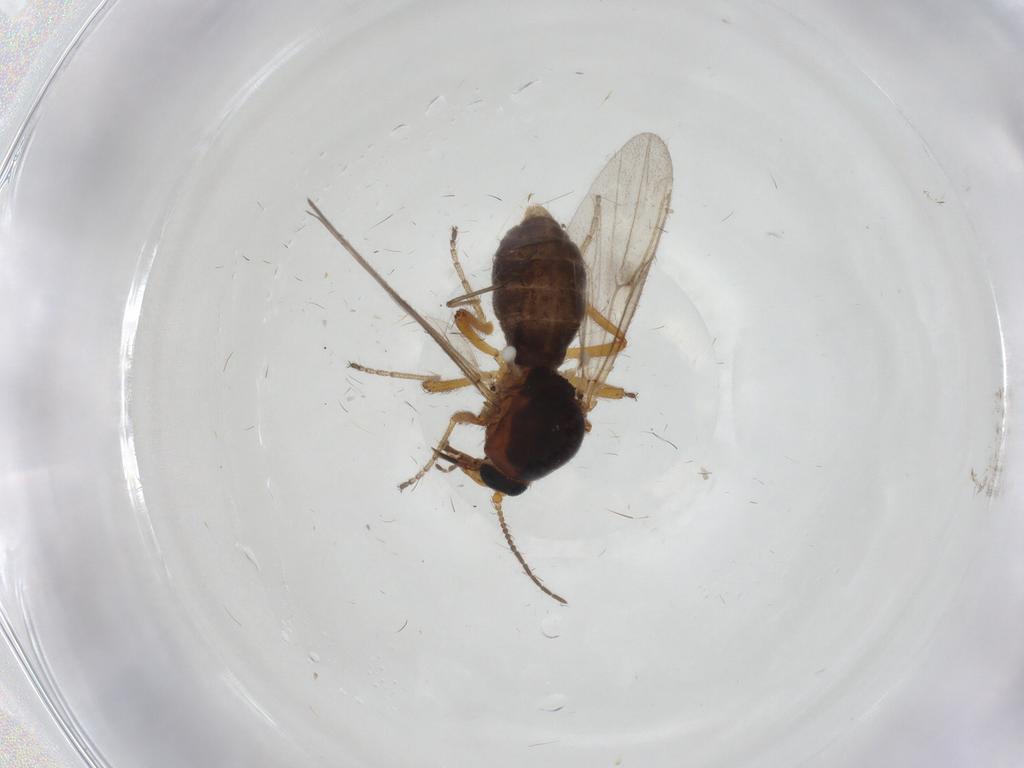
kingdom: Animalia
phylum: Arthropoda
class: Insecta
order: Diptera
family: Ceratopogonidae
